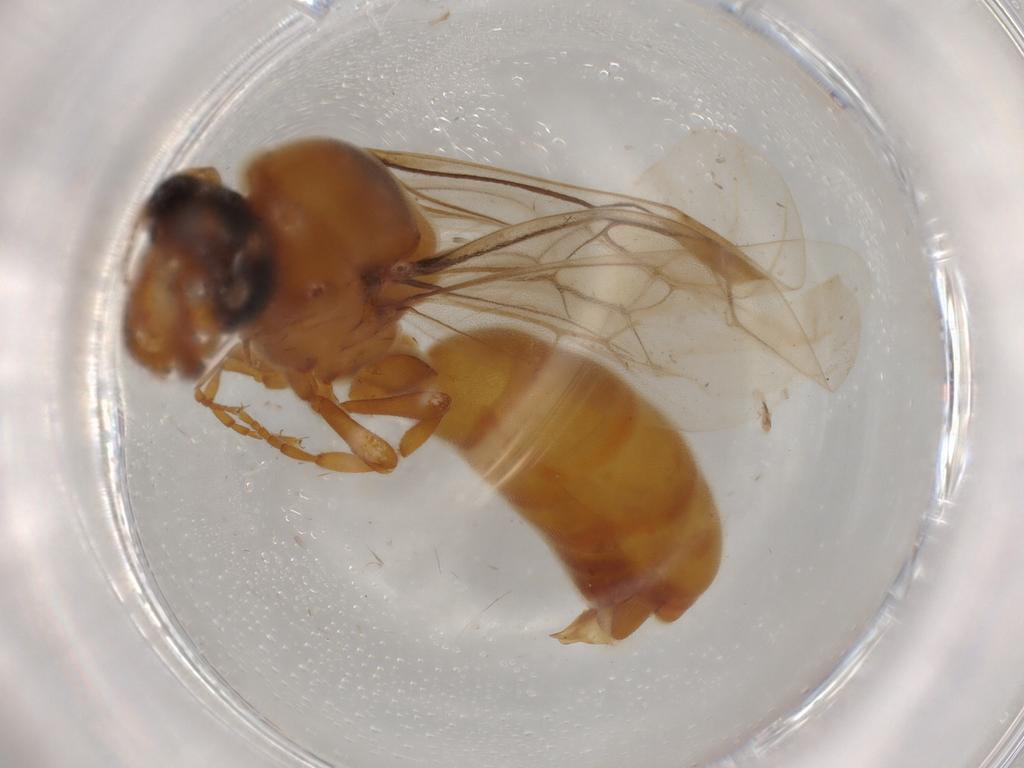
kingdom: Animalia
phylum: Arthropoda
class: Insecta
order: Hymenoptera
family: Formicidae
